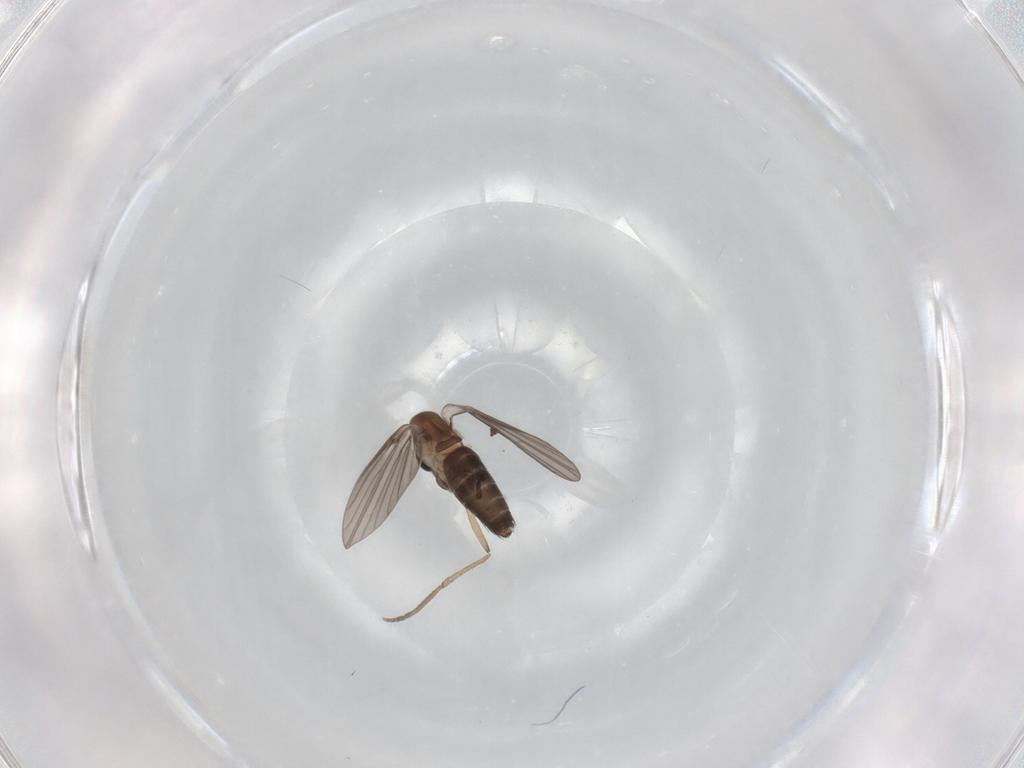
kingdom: Animalia
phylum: Arthropoda
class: Insecta
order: Diptera
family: Psychodidae
